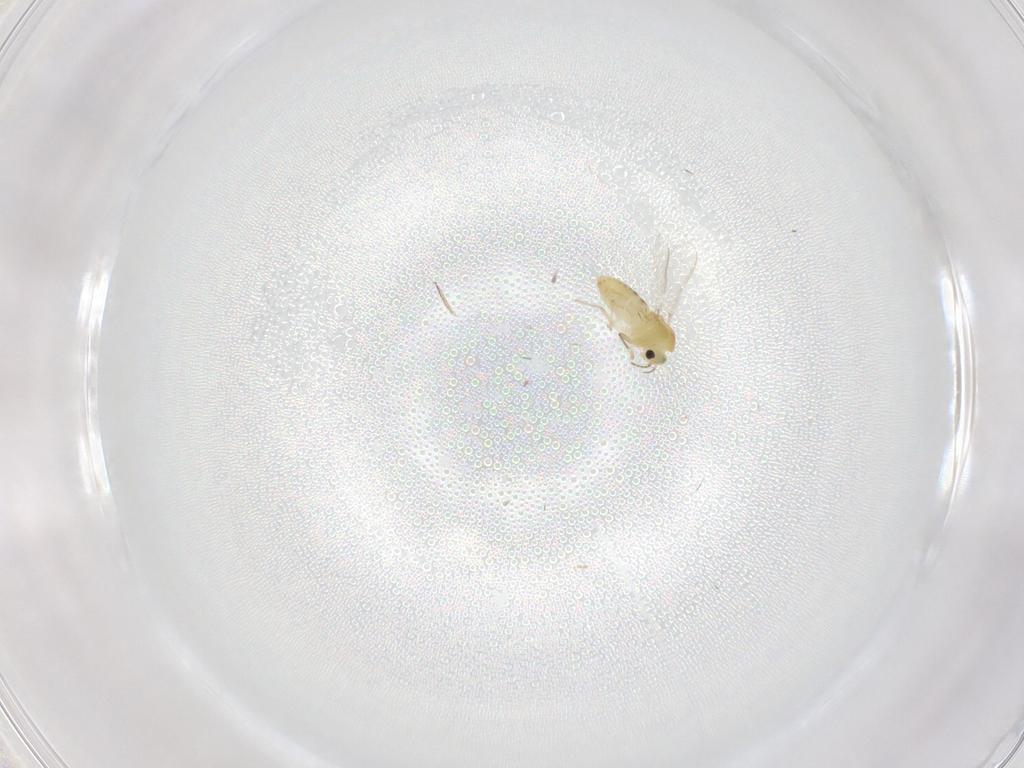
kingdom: Animalia
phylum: Arthropoda
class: Insecta
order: Diptera
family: Chironomidae
